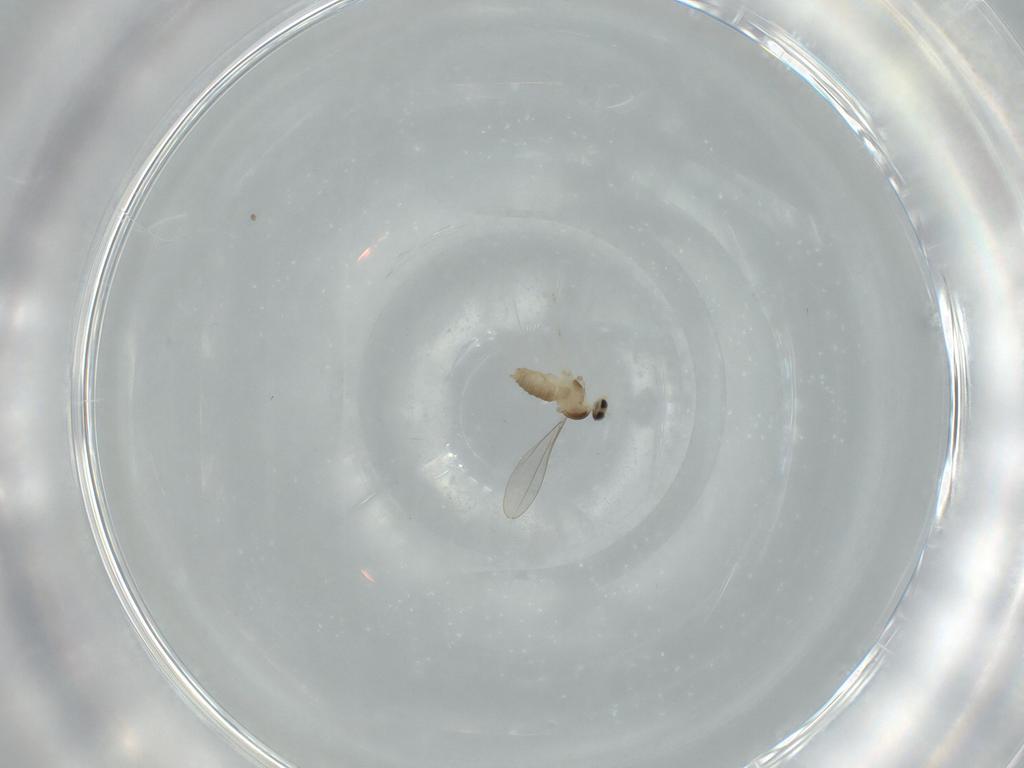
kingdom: Animalia
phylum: Arthropoda
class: Insecta
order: Diptera
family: Cecidomyiidae
